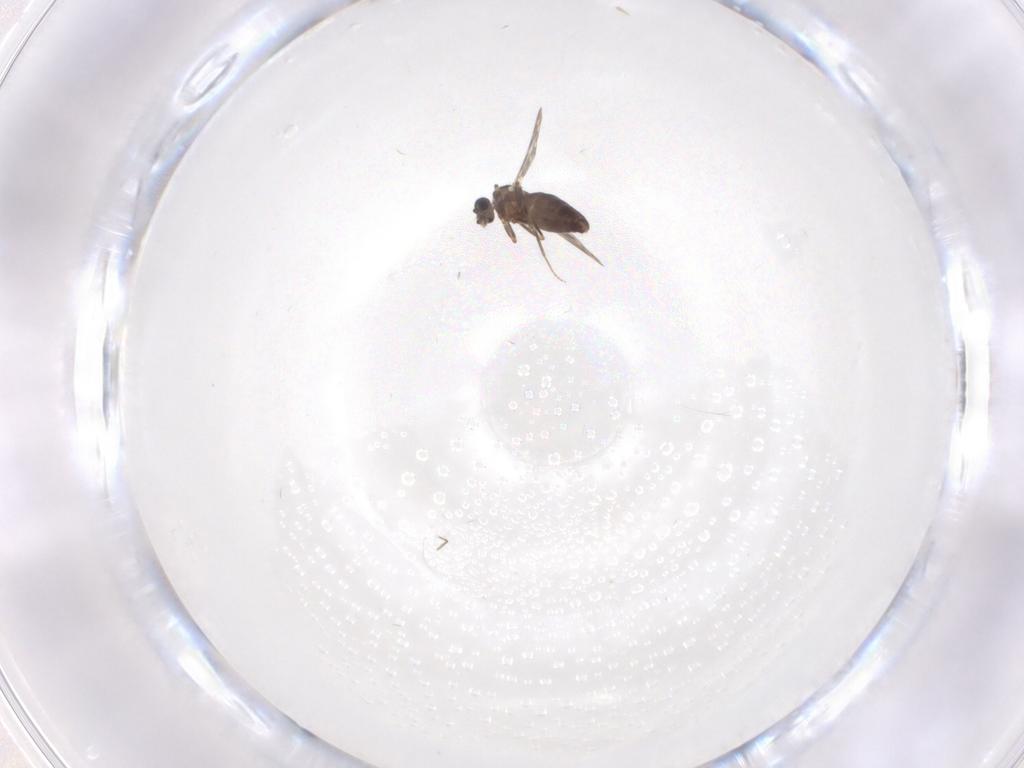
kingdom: Animalia
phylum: Arthropoda
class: Insecta
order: Diptera
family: Ceratopogonidae
